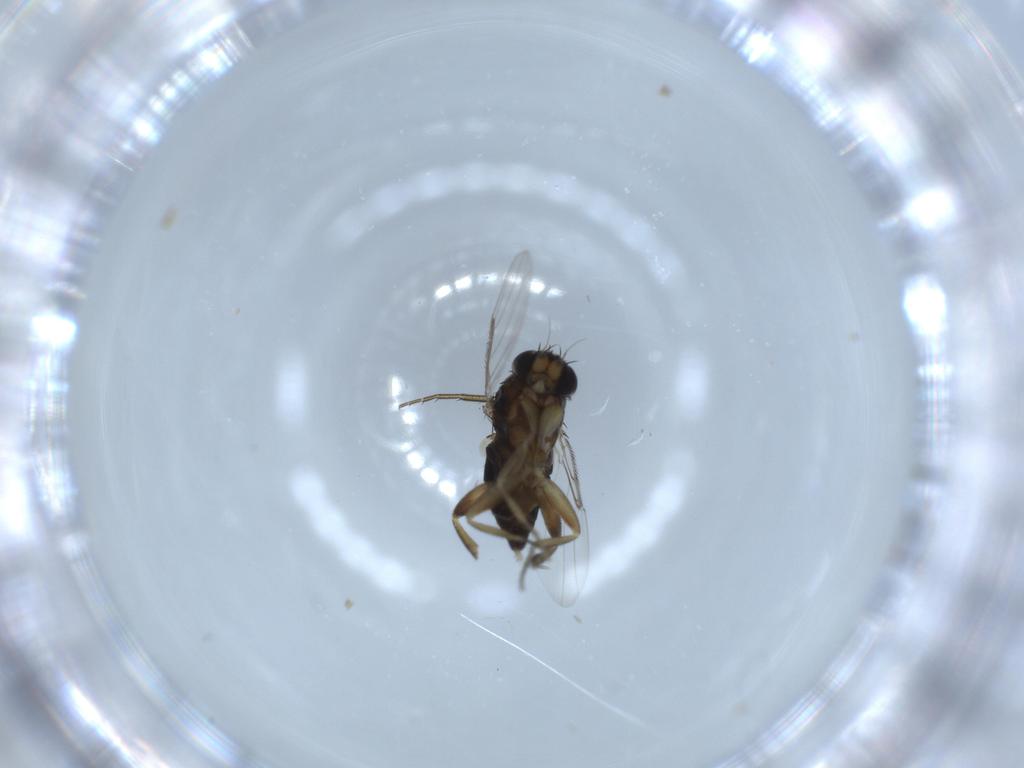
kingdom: Animalia
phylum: Arthropoda
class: Insecta
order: Diptera
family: Phoridae
